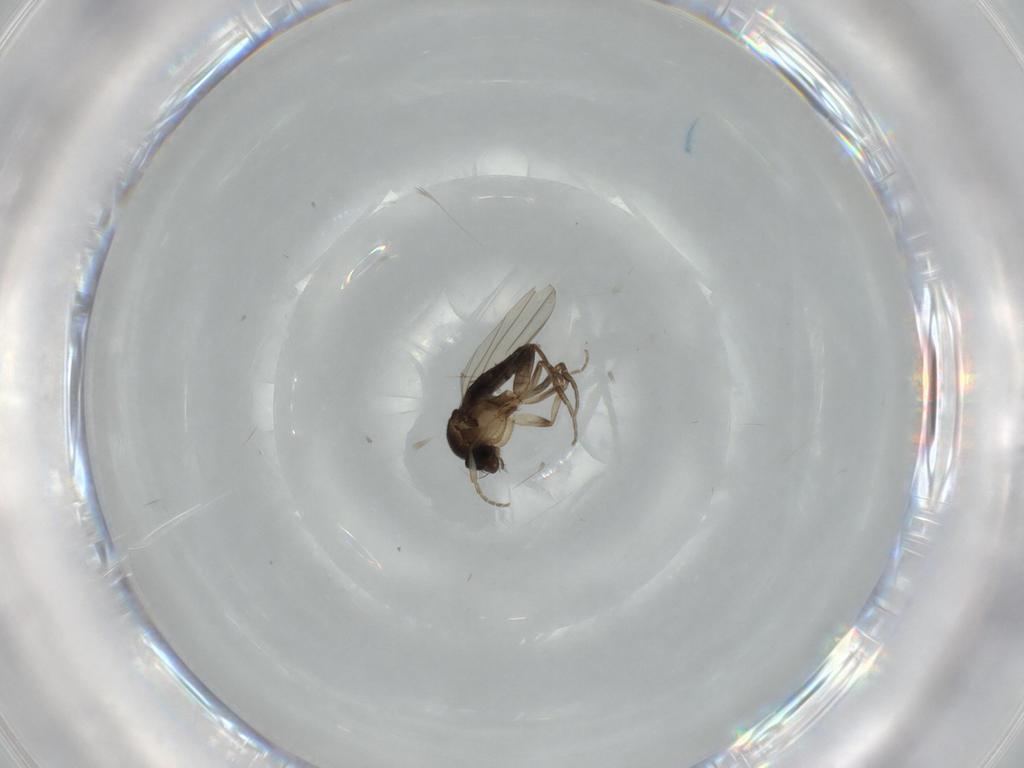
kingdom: Animalia
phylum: Arthropoda
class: Insecta
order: Diptera
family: Phoridae
